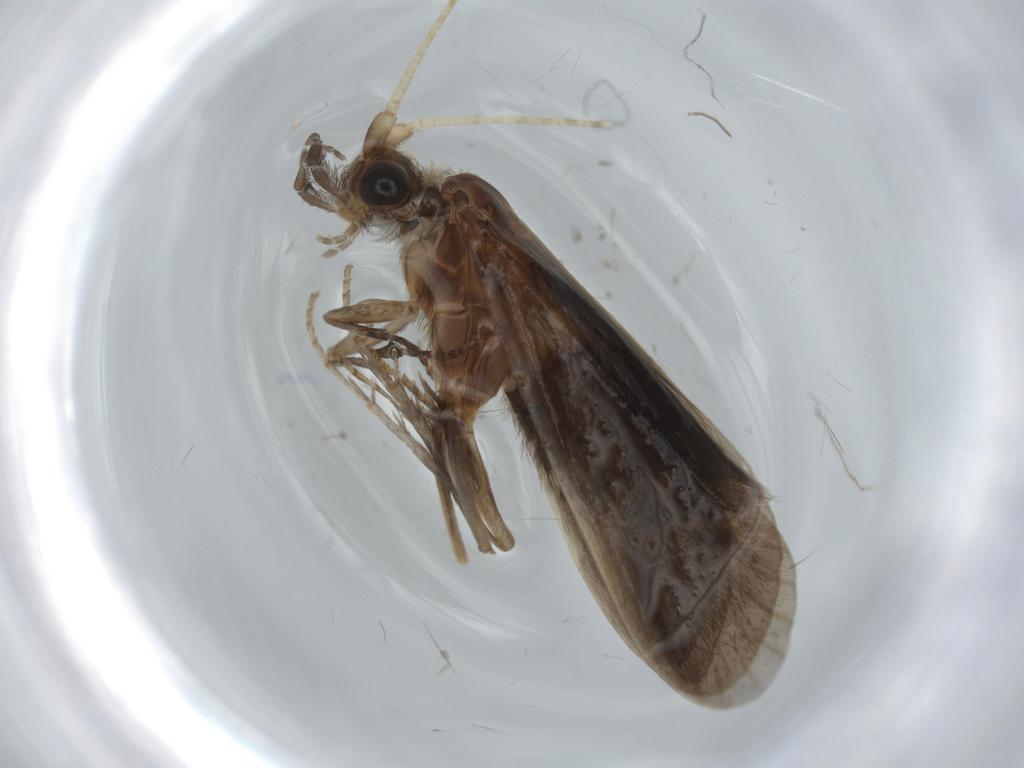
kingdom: Animalia
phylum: Arthropoda
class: Insecta
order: Trichoptera
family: Helicopsychidae
